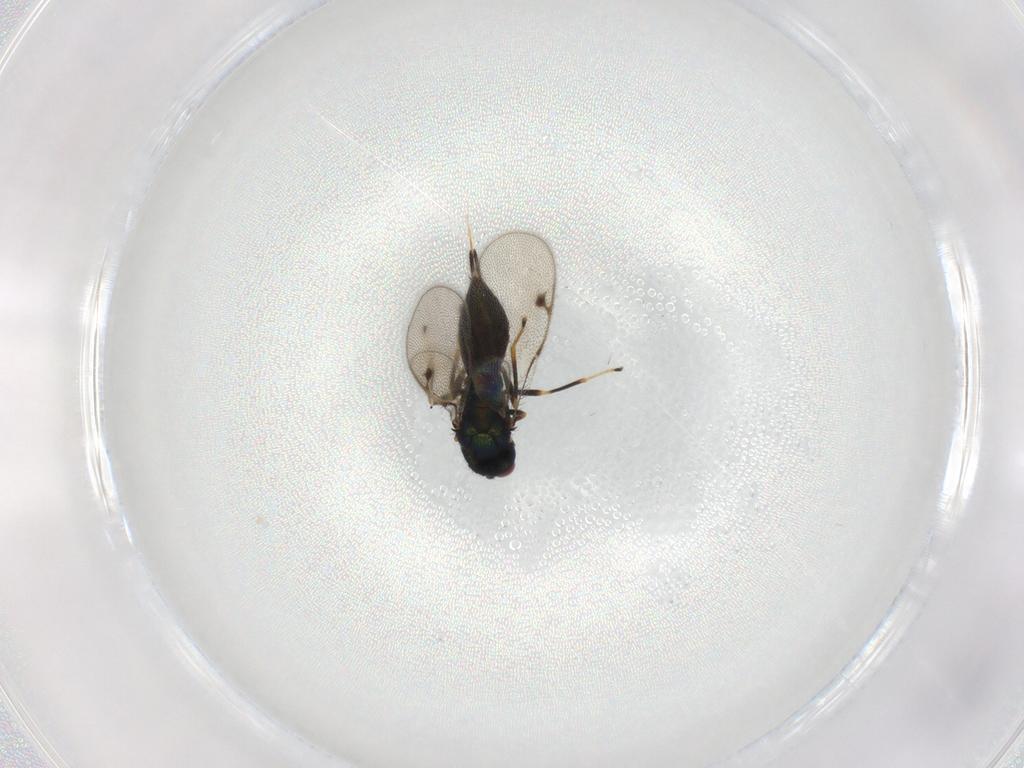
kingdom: Animalia
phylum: Arthropoda
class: Insecta
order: Hymenoptera
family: Pirenidae
